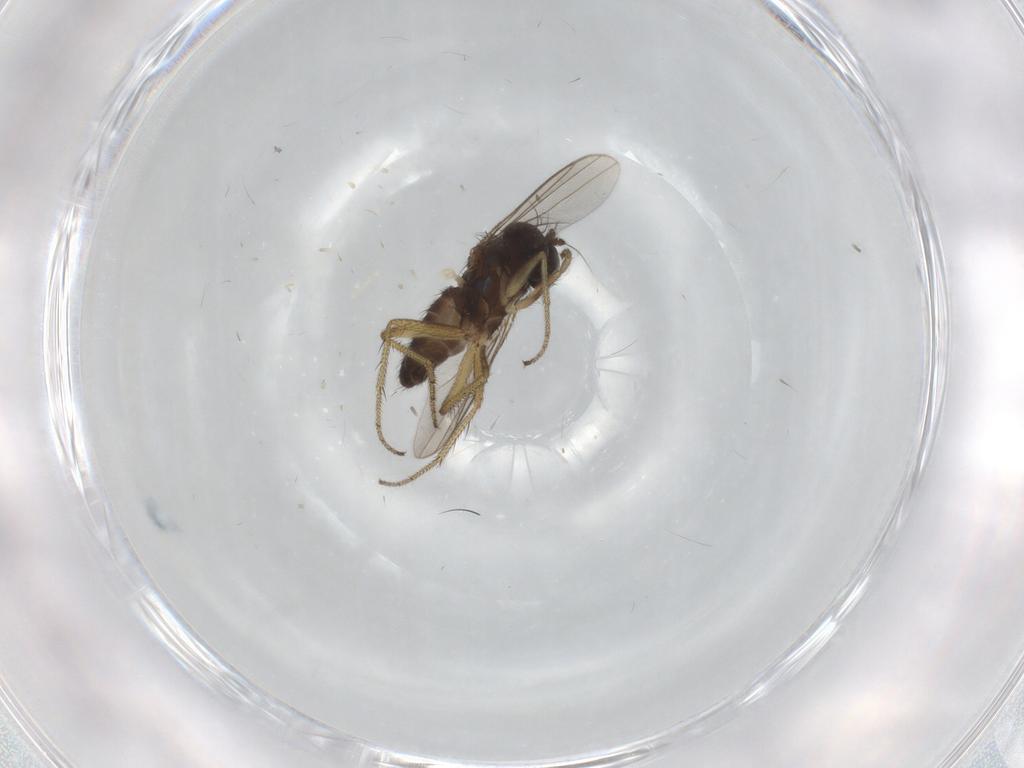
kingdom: Animalia
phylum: Arthropoda
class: Insecta
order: Diptera
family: Chironomidae
